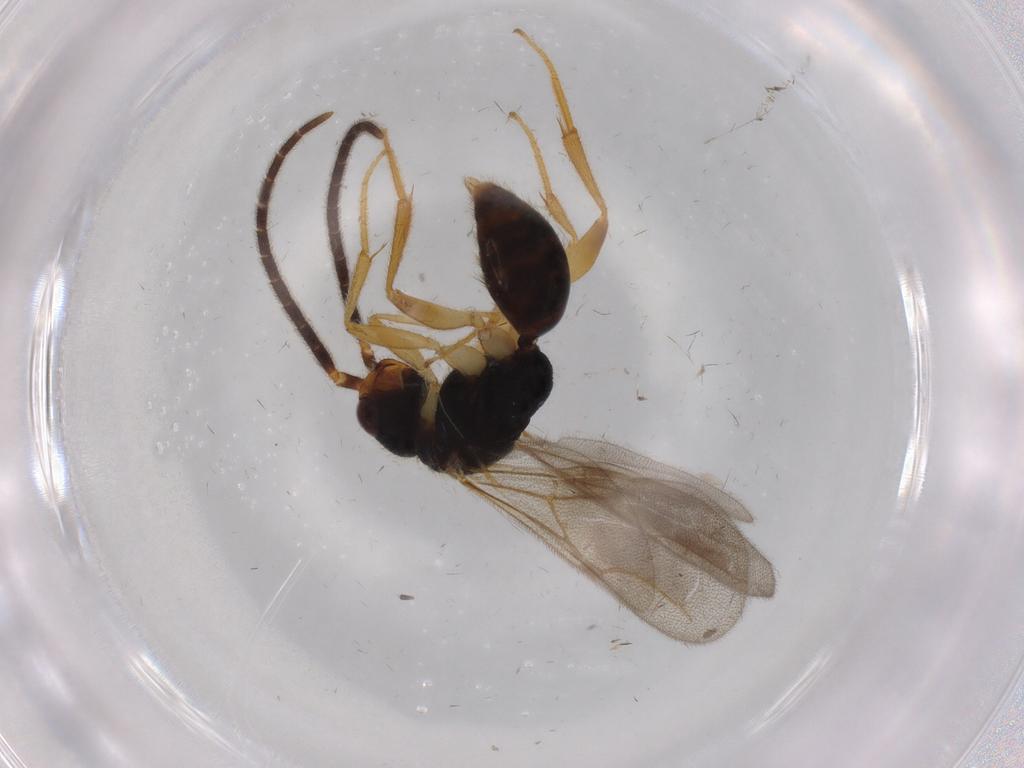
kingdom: Animalia
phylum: Arthropoda
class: Insecta
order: Hymenoptera
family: Bethylidae
